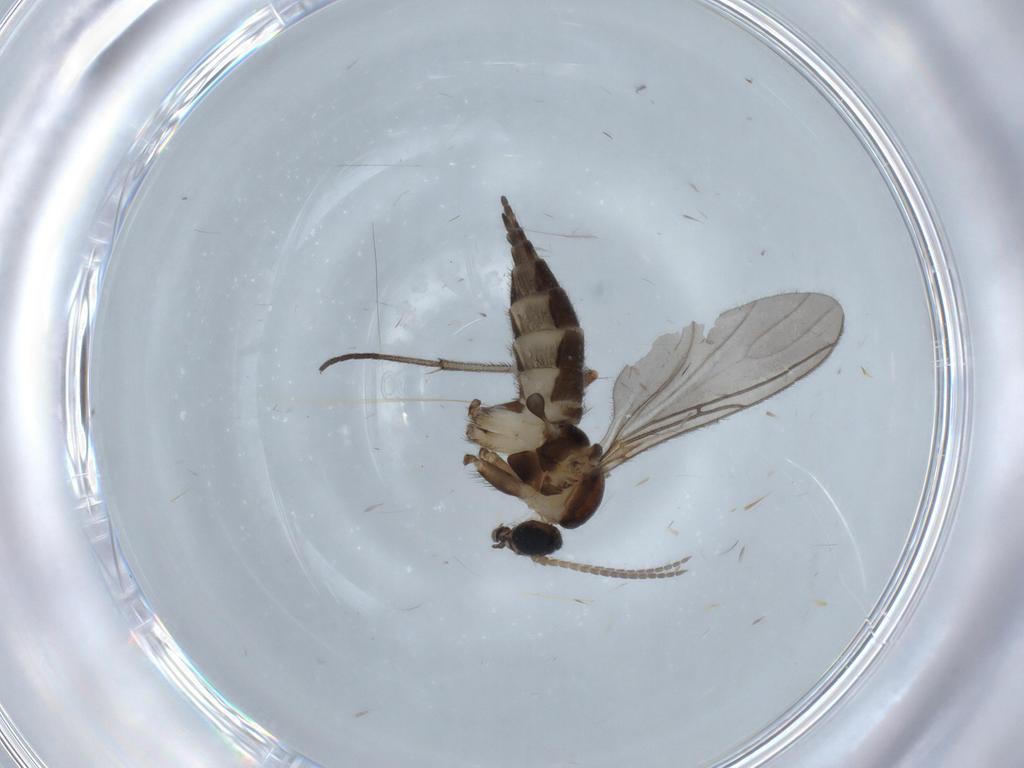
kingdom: Animalia
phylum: Arthropoda
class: Insecta
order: Diptera
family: Sciaridae
